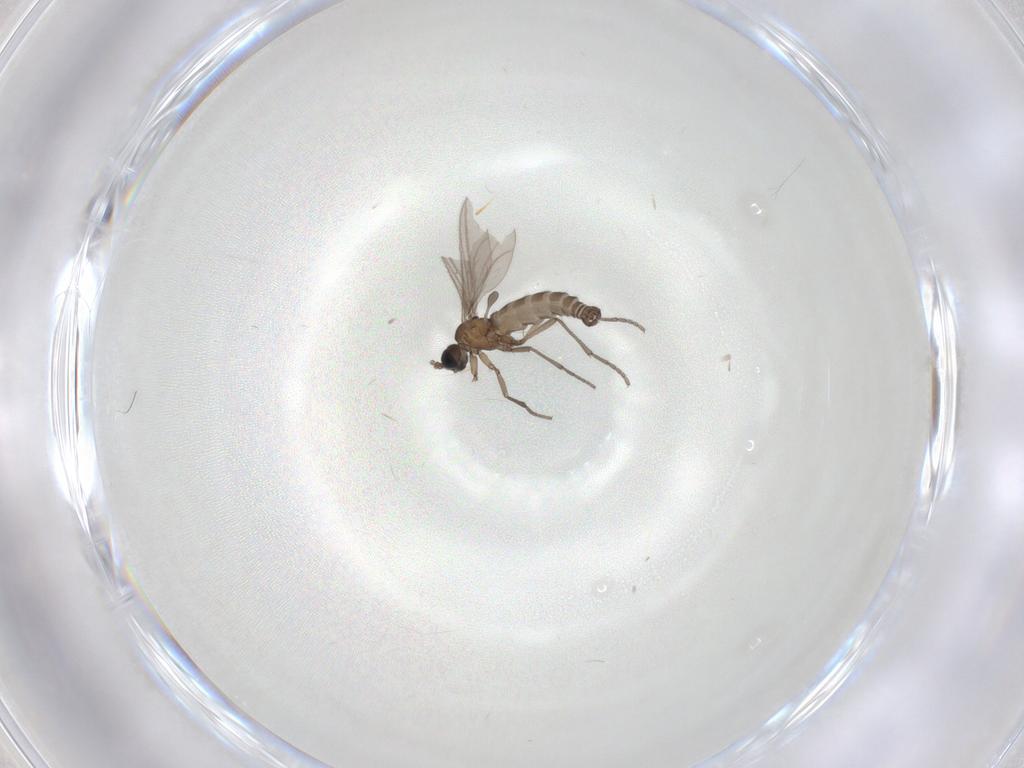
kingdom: Animalia
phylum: Arthropoda
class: Insecta
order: Diptera
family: Sciaridae
